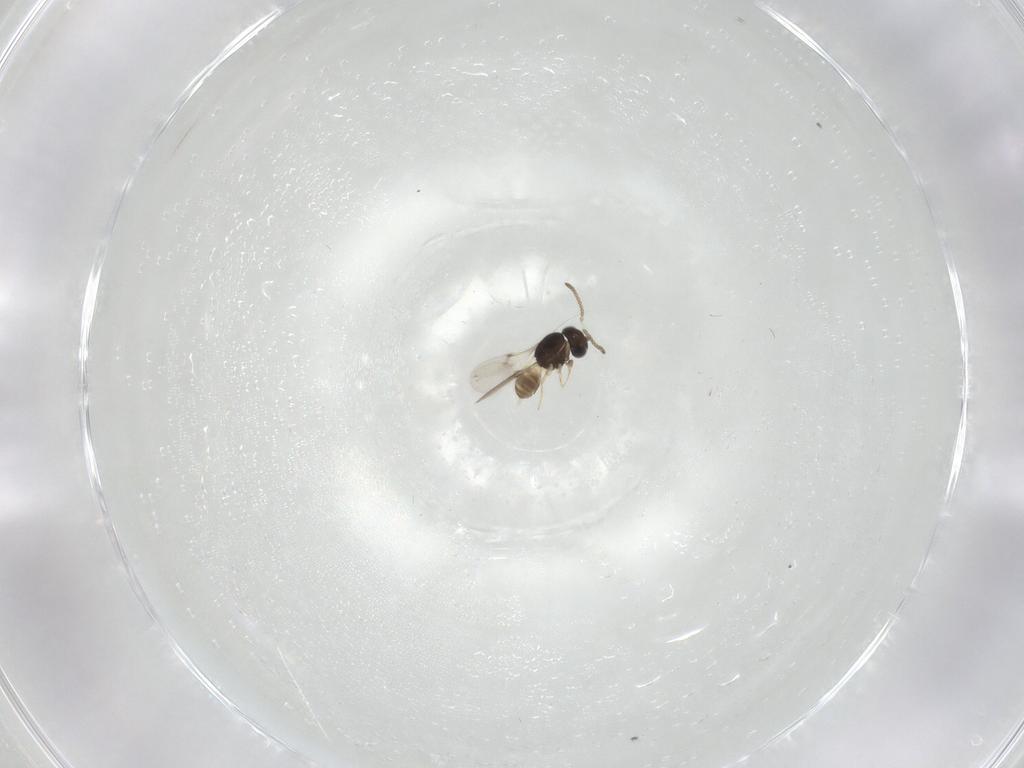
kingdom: Animalia
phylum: Arthropoda
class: Insecta
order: Hymenoptera
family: Scelionidae
